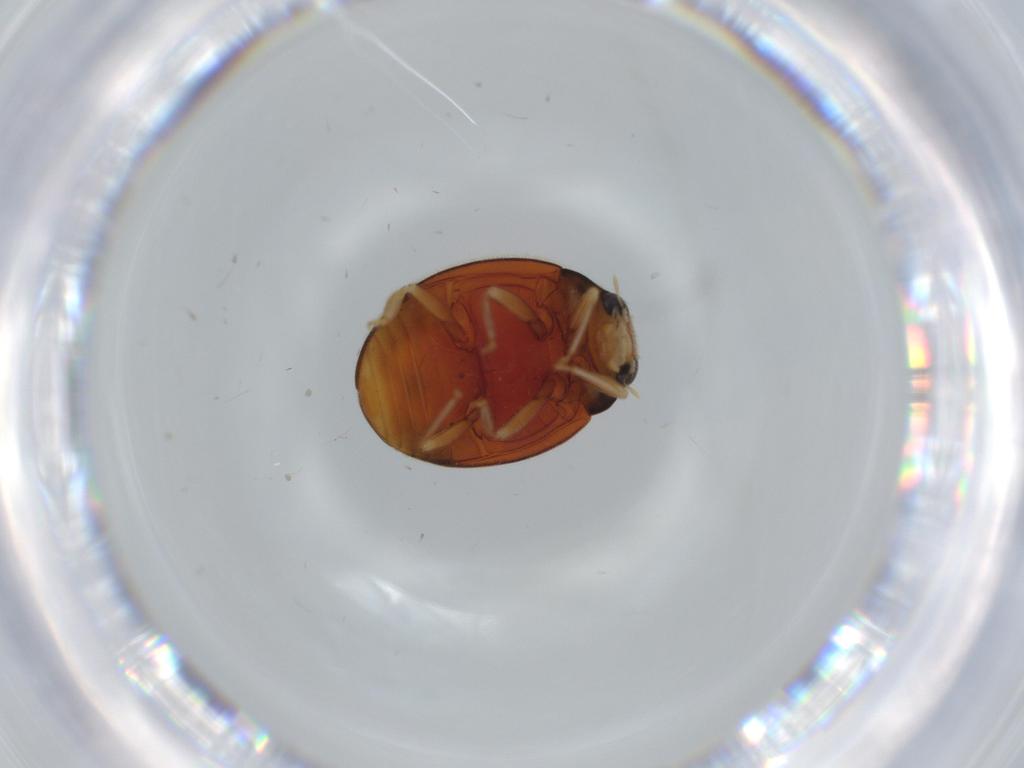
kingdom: Animalia
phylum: Arthropoda
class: Insecta
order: Coleoptera
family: Coccinellidae
